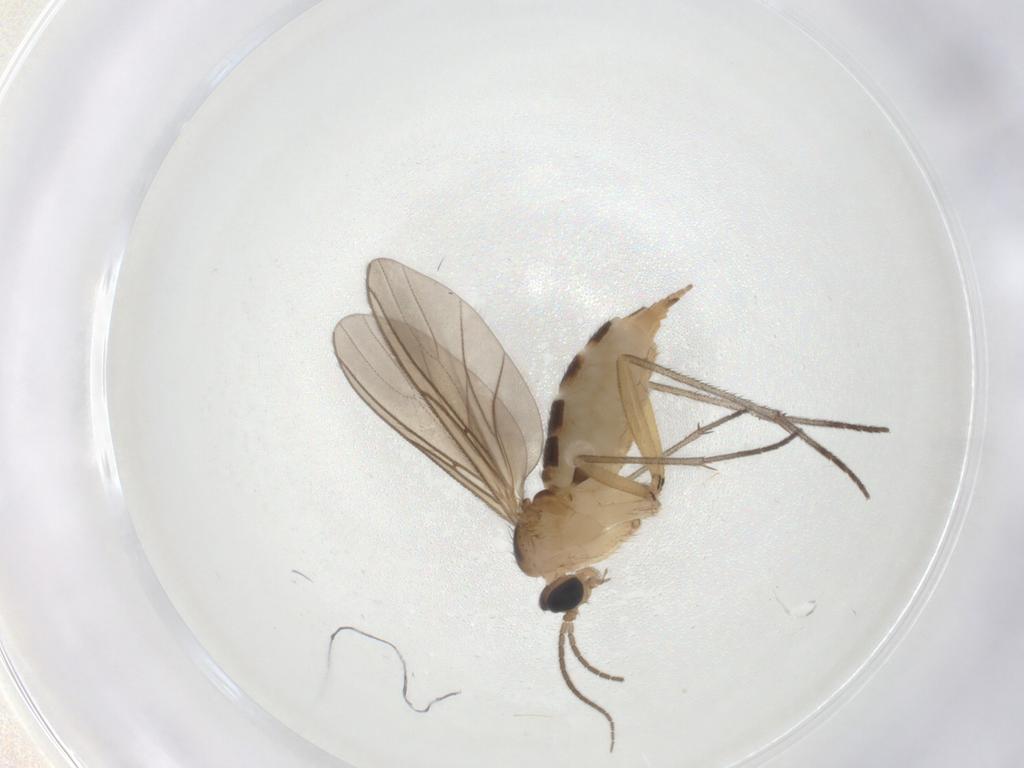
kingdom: Animalia
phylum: Arthropoda
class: Insecta
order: Diptera
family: Sciaridae
